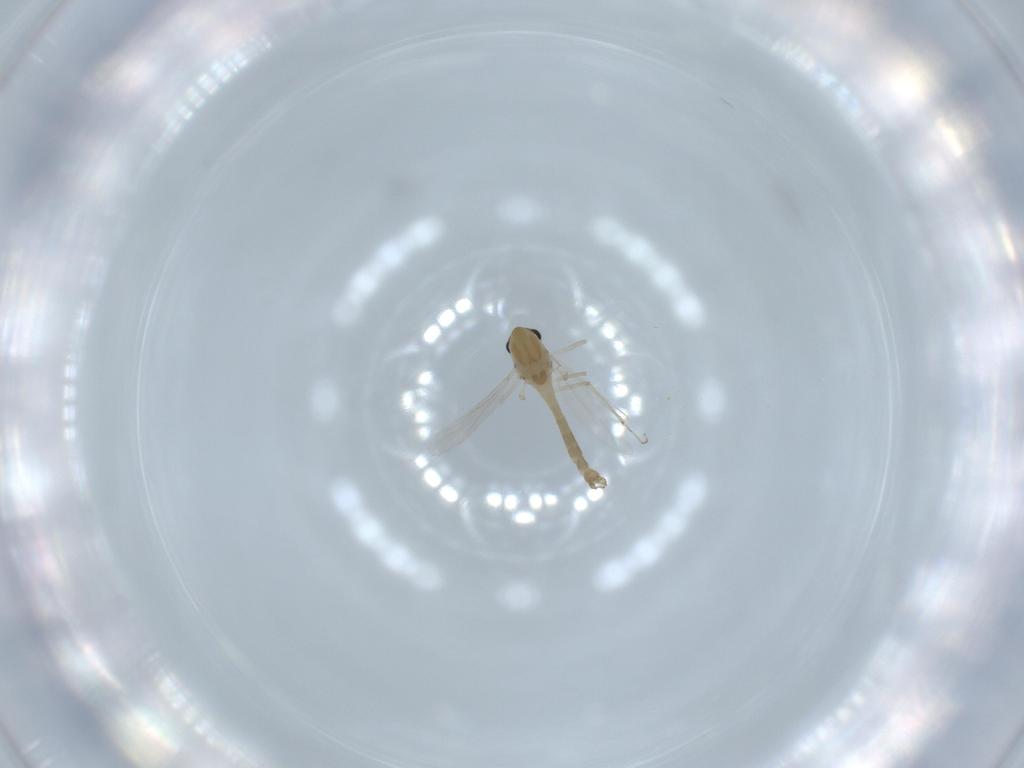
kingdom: Animalia
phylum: Arthropoda
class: Insecta
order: Diptera
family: Chironomidae
